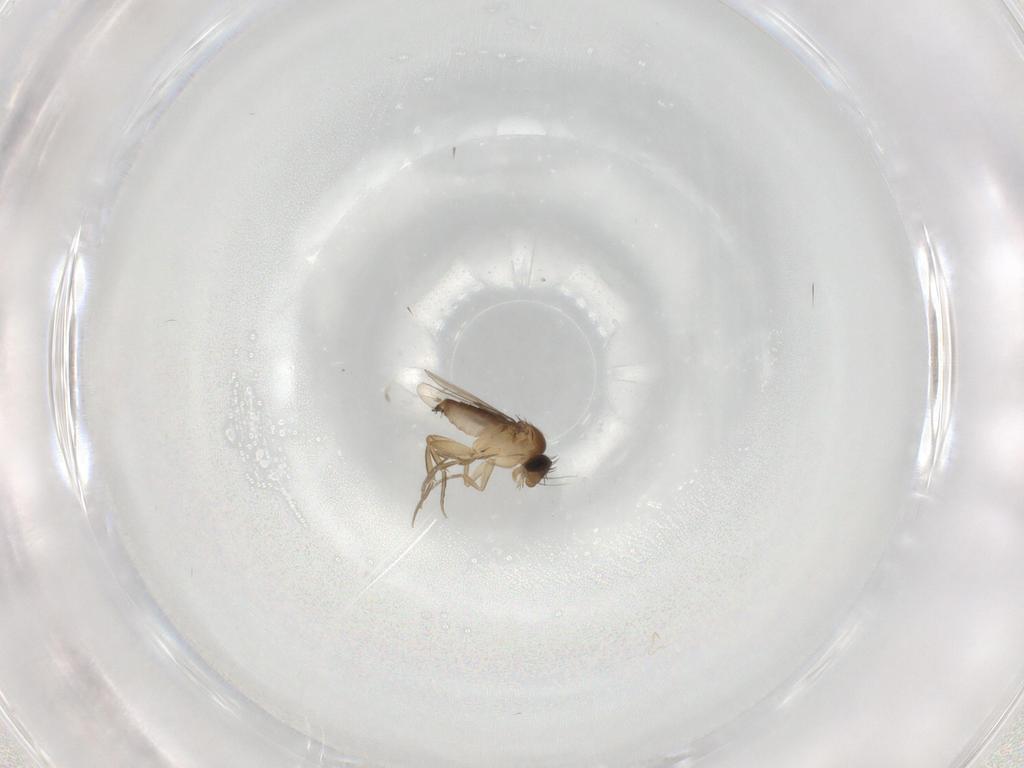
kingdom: Animalia
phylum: Arthropoda
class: Insecta
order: Diptera
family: Phoridae
